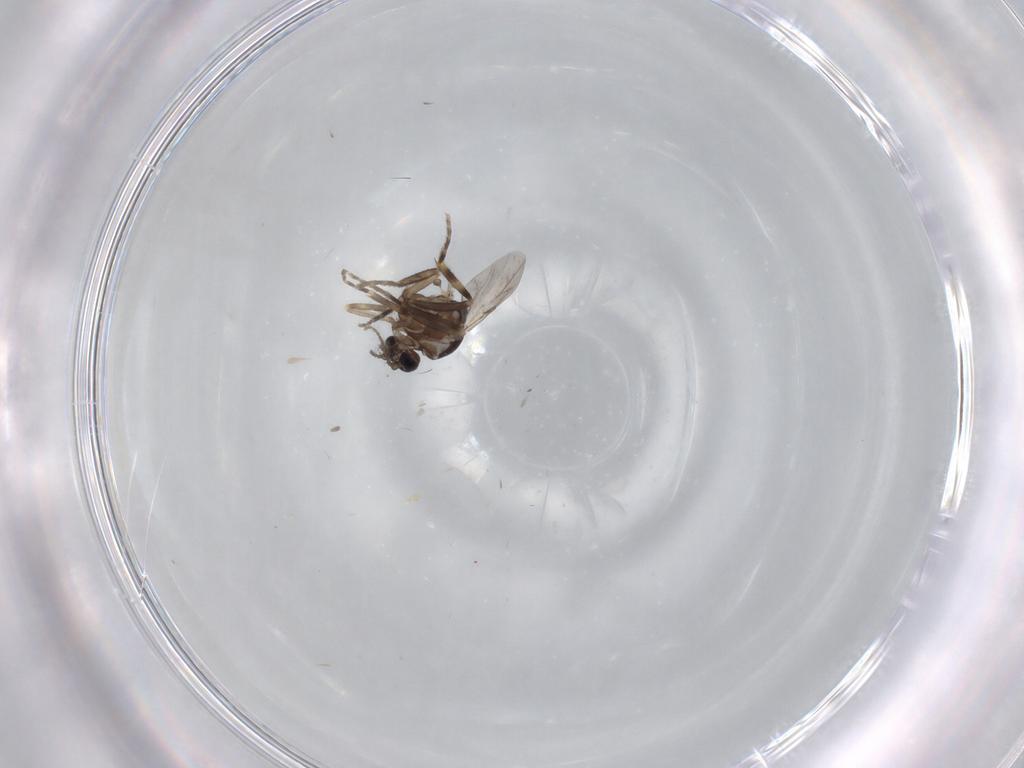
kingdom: Animalia
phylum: Arthropoda
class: Insecta
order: Diptera
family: Ceratopogonidae
